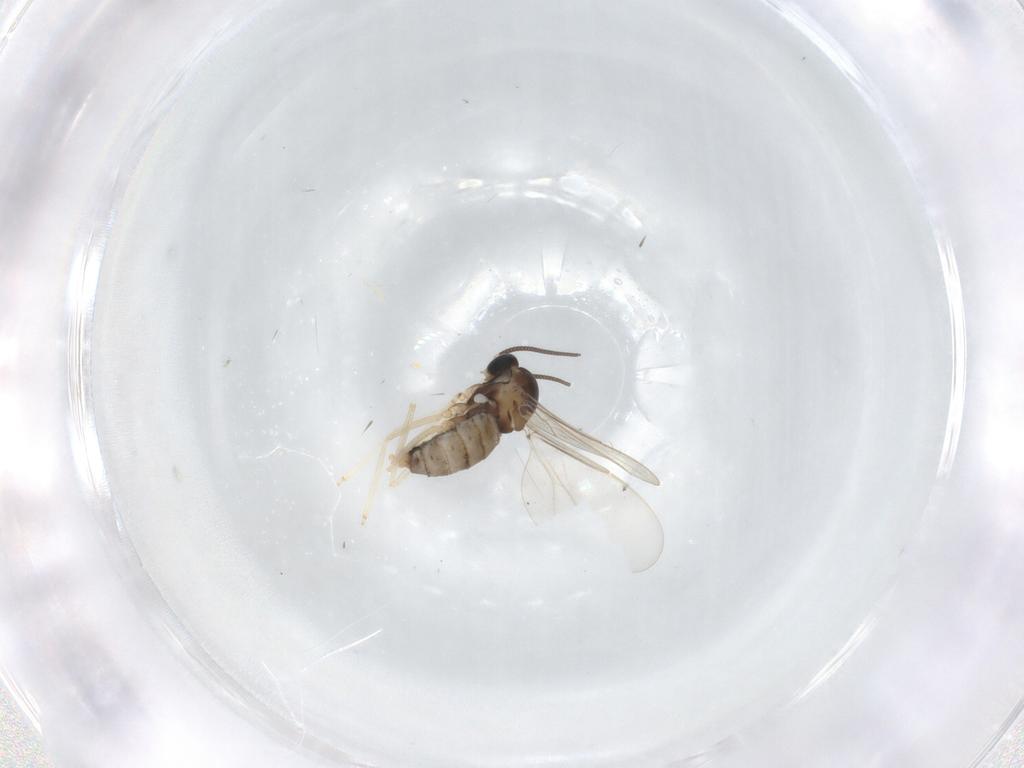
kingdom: Animalia
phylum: Arthropoda
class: Insecta
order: Diptera
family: Cecidomyiidae
